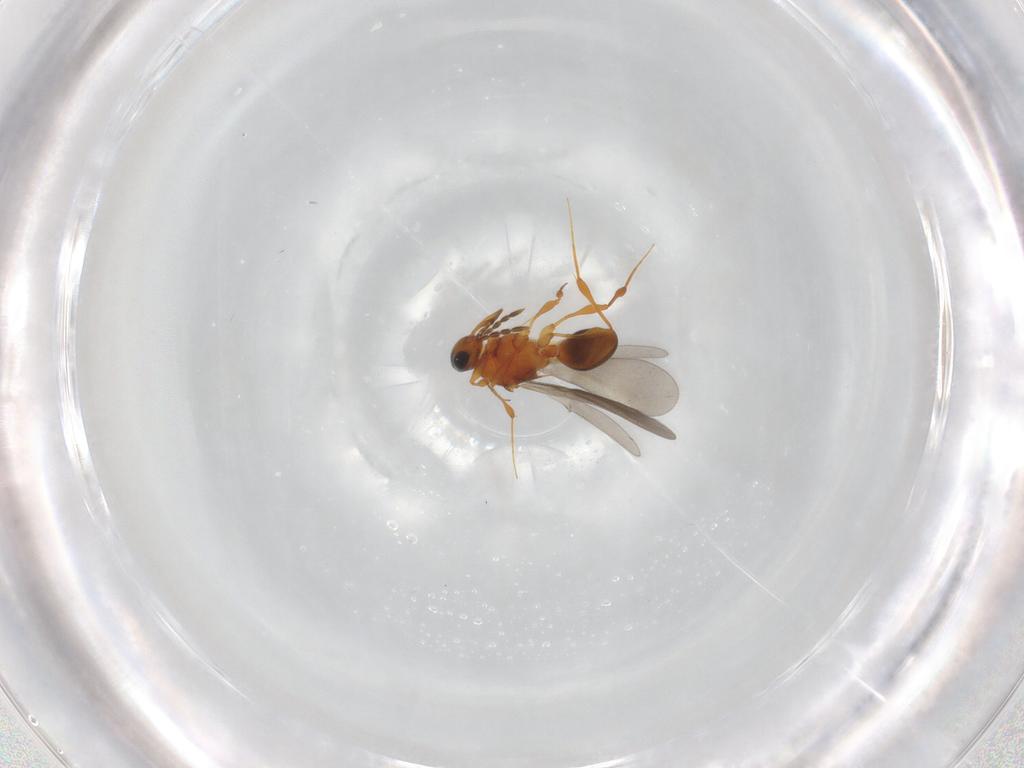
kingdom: Animalia
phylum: Arthropoda
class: Insecta
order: Hymenoptera
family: Platygastridae
